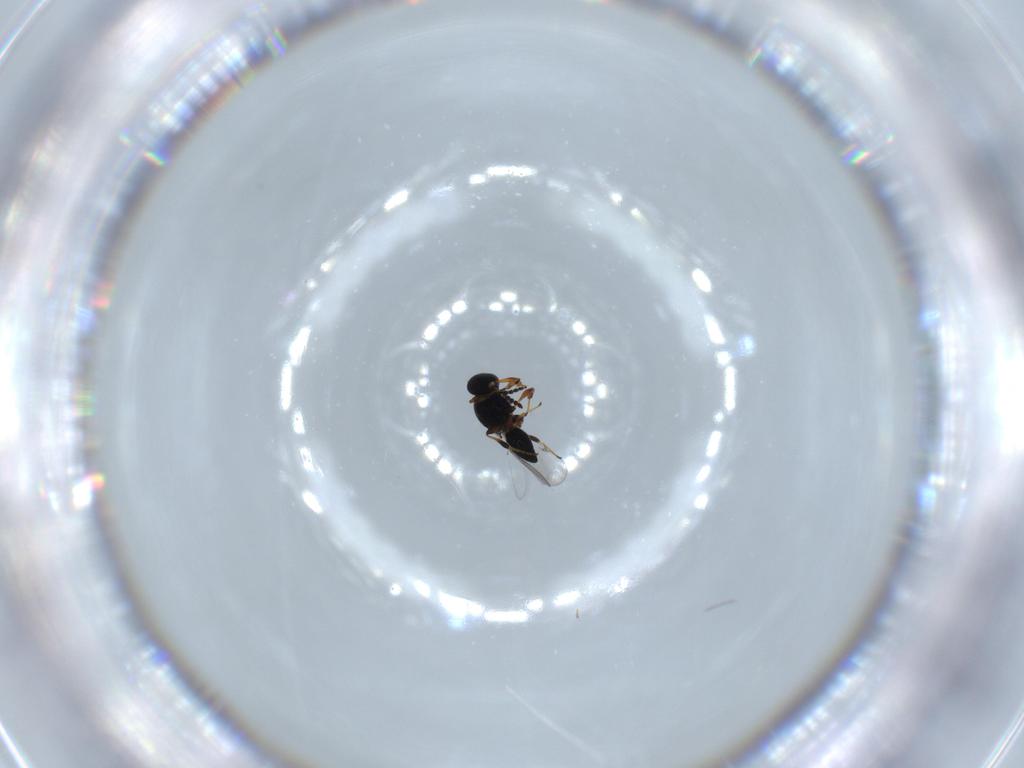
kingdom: Animalia
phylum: Arthropoda
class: Insecta
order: Hymenoptera
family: Platygastridae
